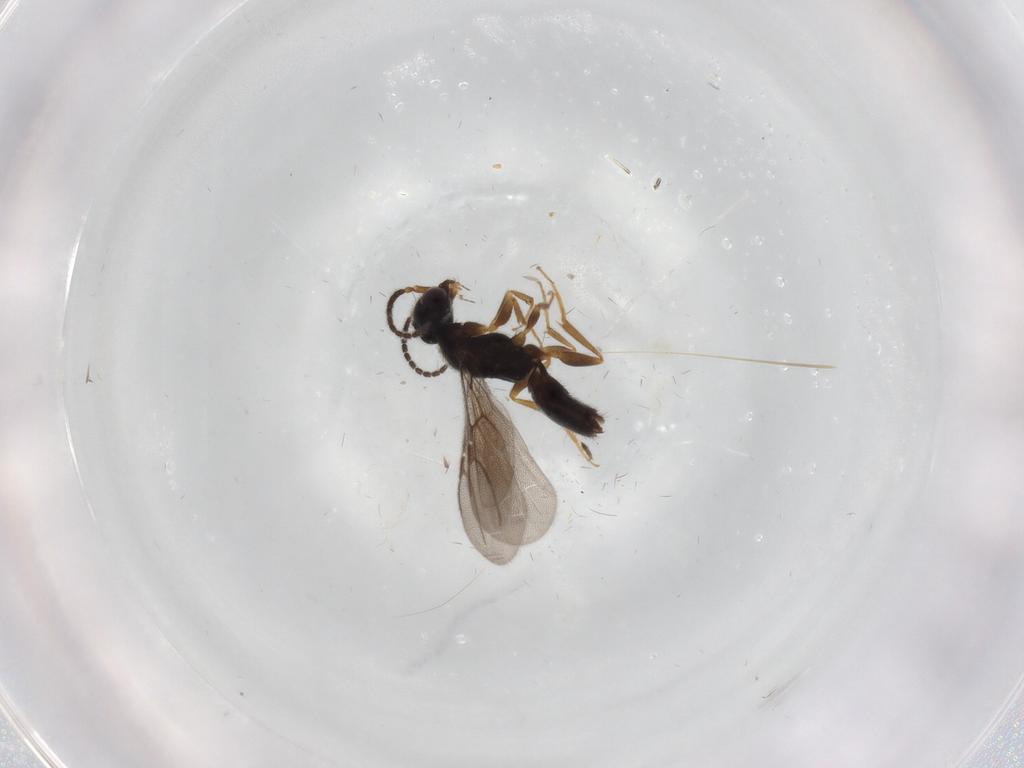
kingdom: Animalia
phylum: Arthropoda
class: Insecta
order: Hymenoptera
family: Bethylidae
